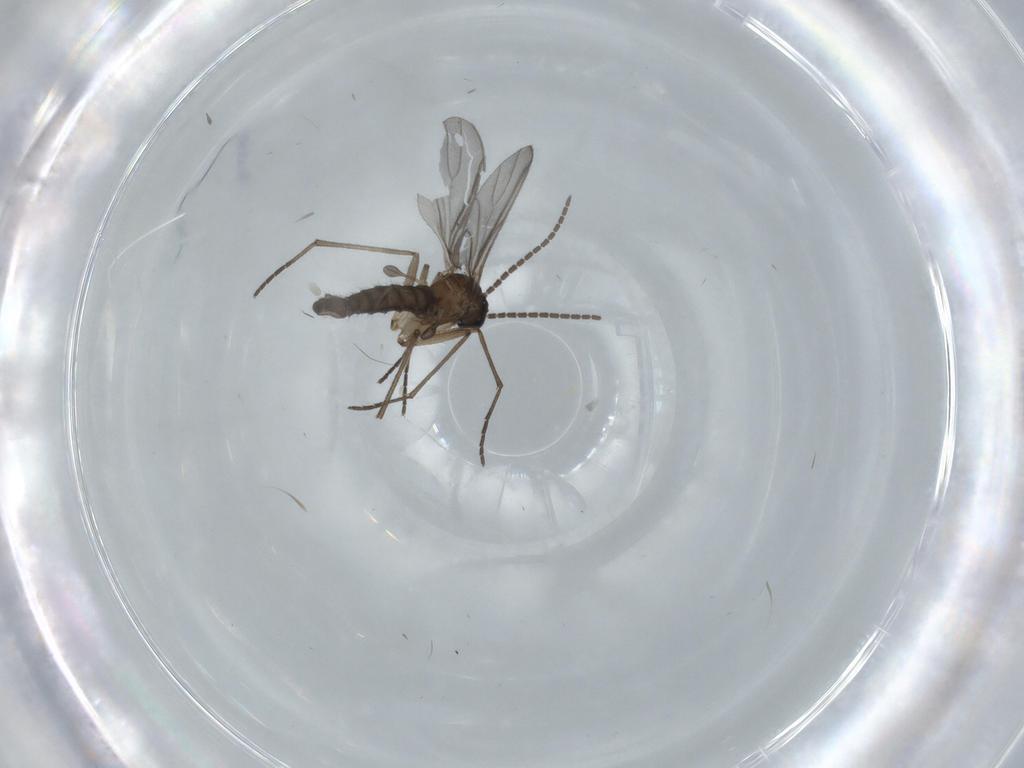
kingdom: Animalia
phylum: Arthropoda
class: Insecta
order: Diptera
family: Sciaridae
